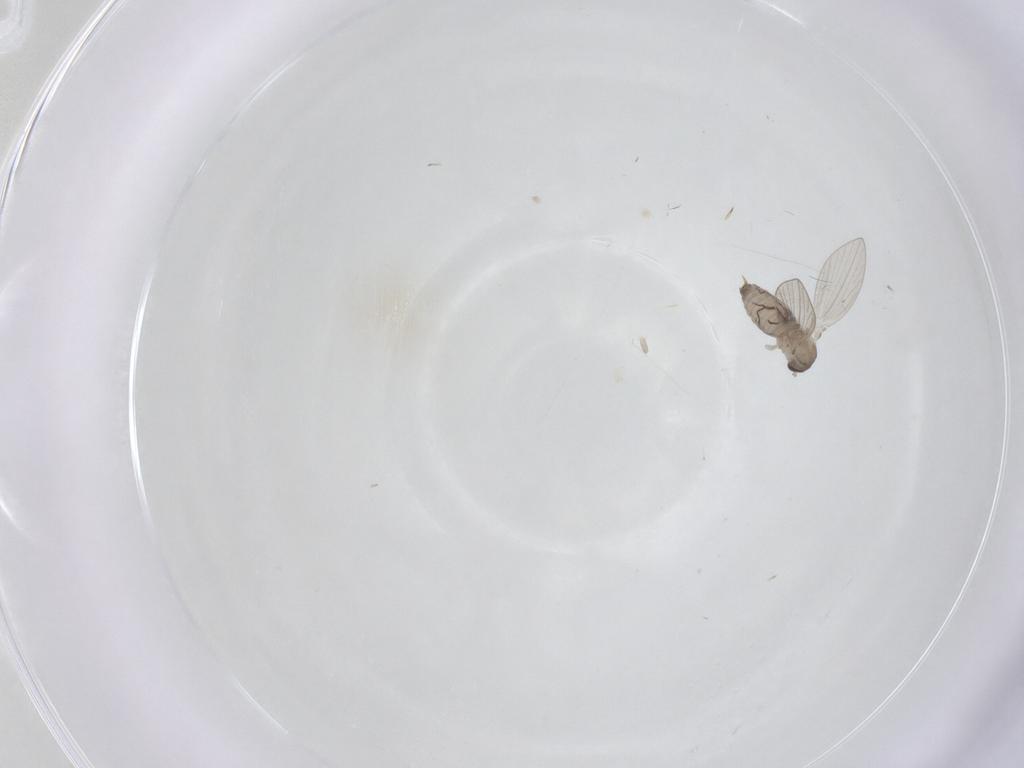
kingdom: Animalia
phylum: Arthropoda
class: Insecta
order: Diptera
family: Psychodidae
